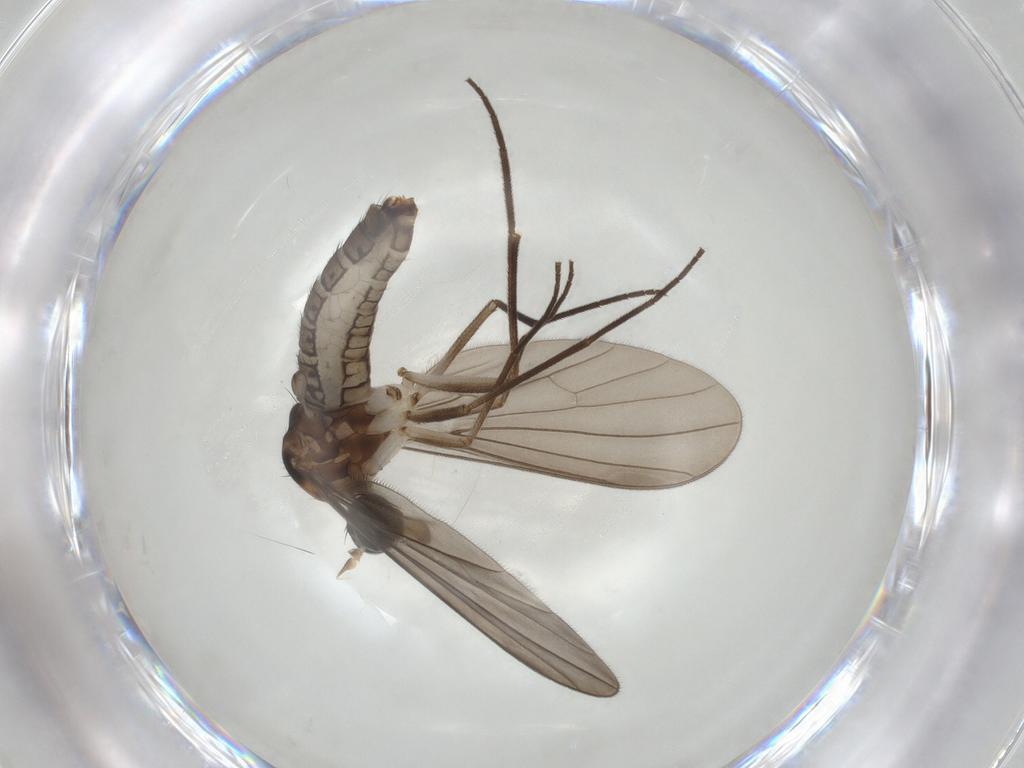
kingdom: Animalia
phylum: Arthropoda
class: Insecta
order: Diptera
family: Empididae
